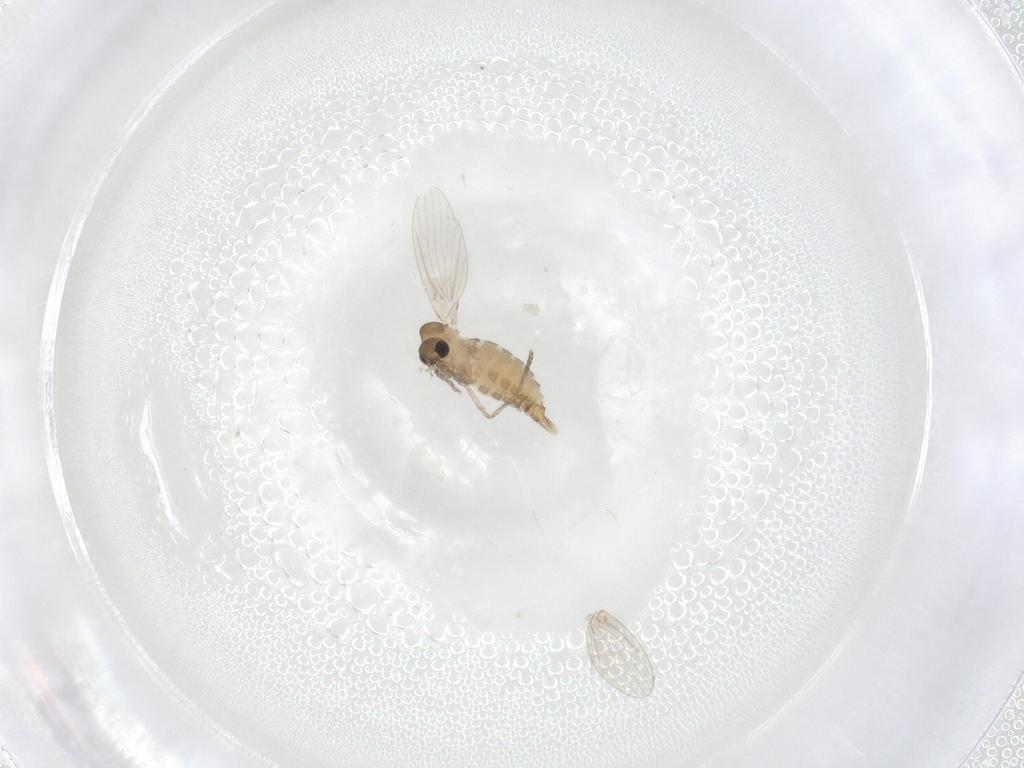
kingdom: Animalia
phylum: Arthropoda
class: Insecta
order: Diptera
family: Psychodidae
